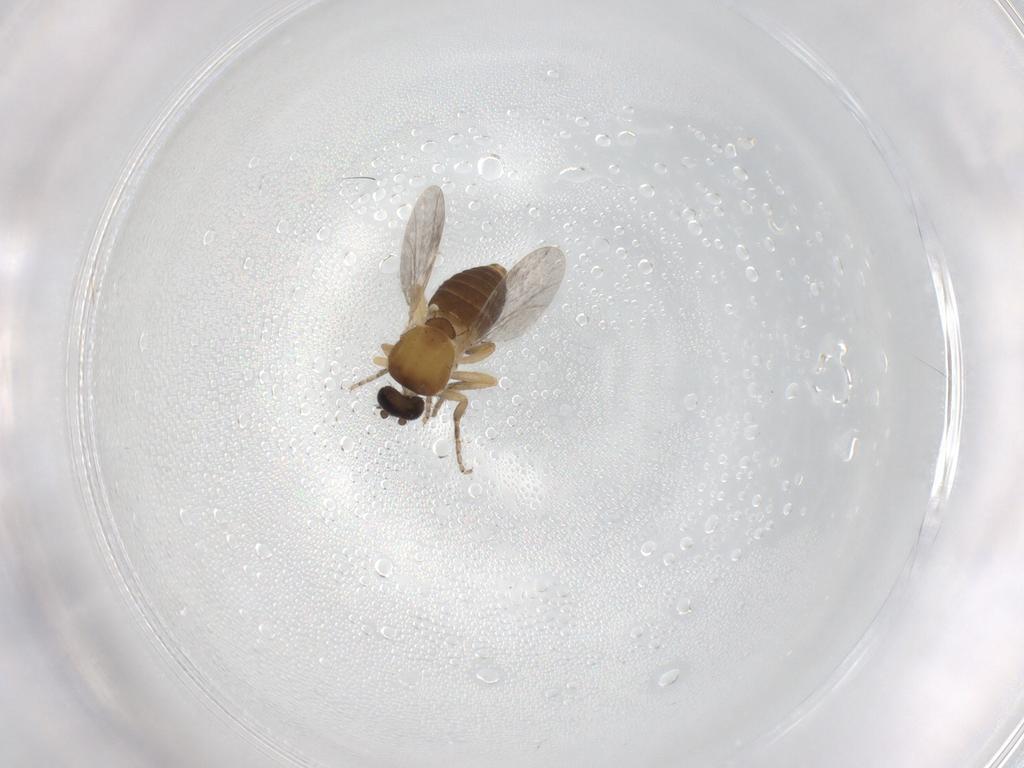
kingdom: Animalia
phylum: Arthropoda
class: Insecta
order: Diptera
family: Ceratopogonidae
